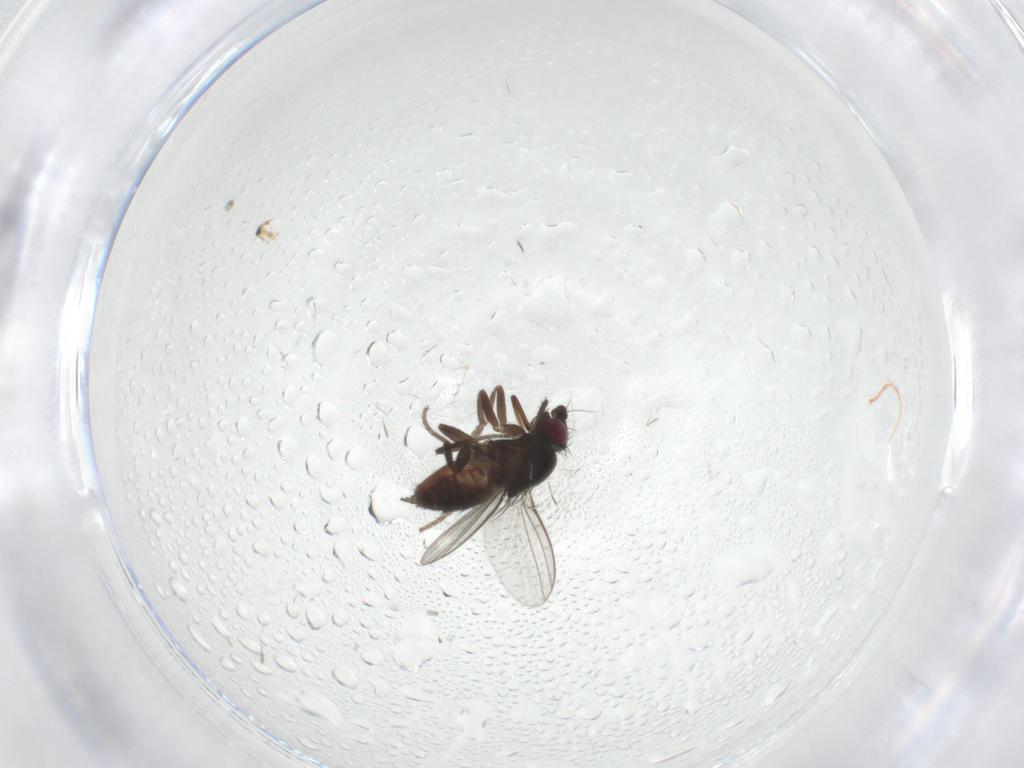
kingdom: Animalia
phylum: Arthropoda
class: Insecta
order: Diptera
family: Milichiidae
